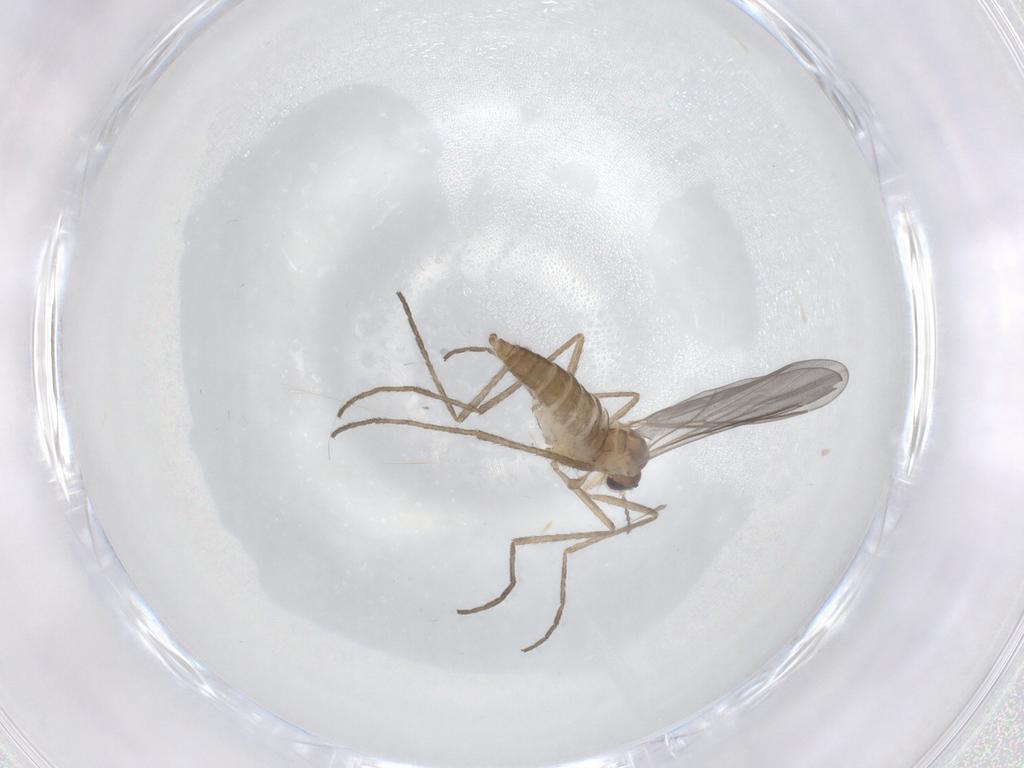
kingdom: Animalia
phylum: Arthropoda
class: Insecta
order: Diptera
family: Cecidomyiidae
